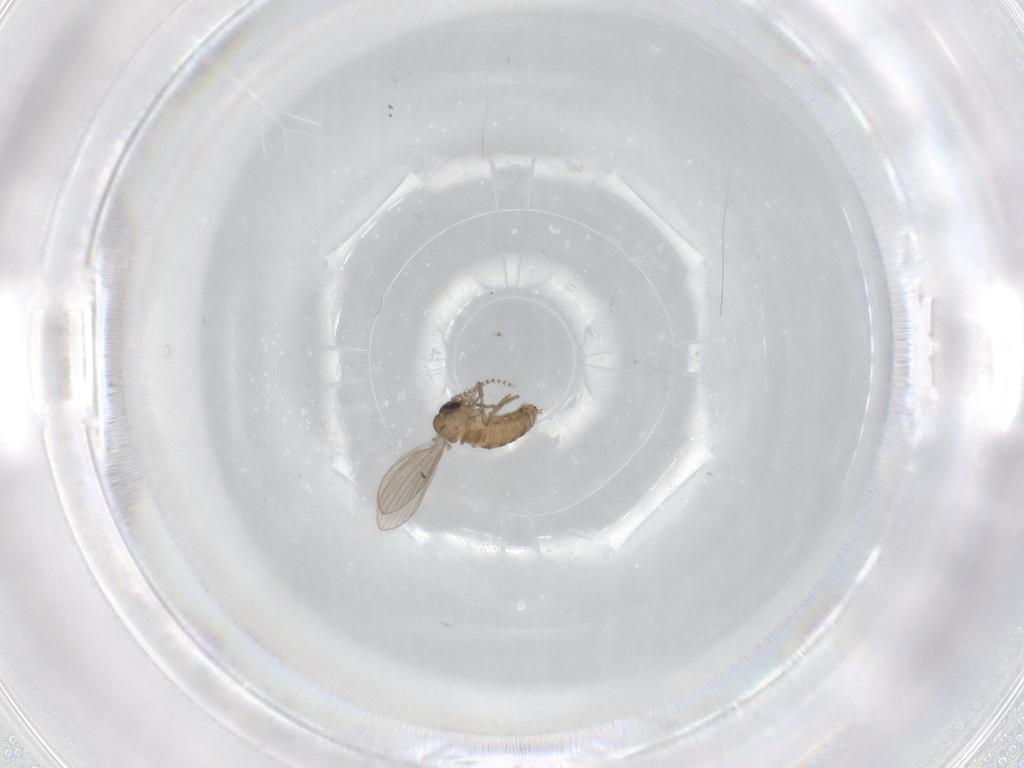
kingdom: Animalia
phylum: Arthropoda
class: Insecta
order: Diptera
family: Psychodidae
